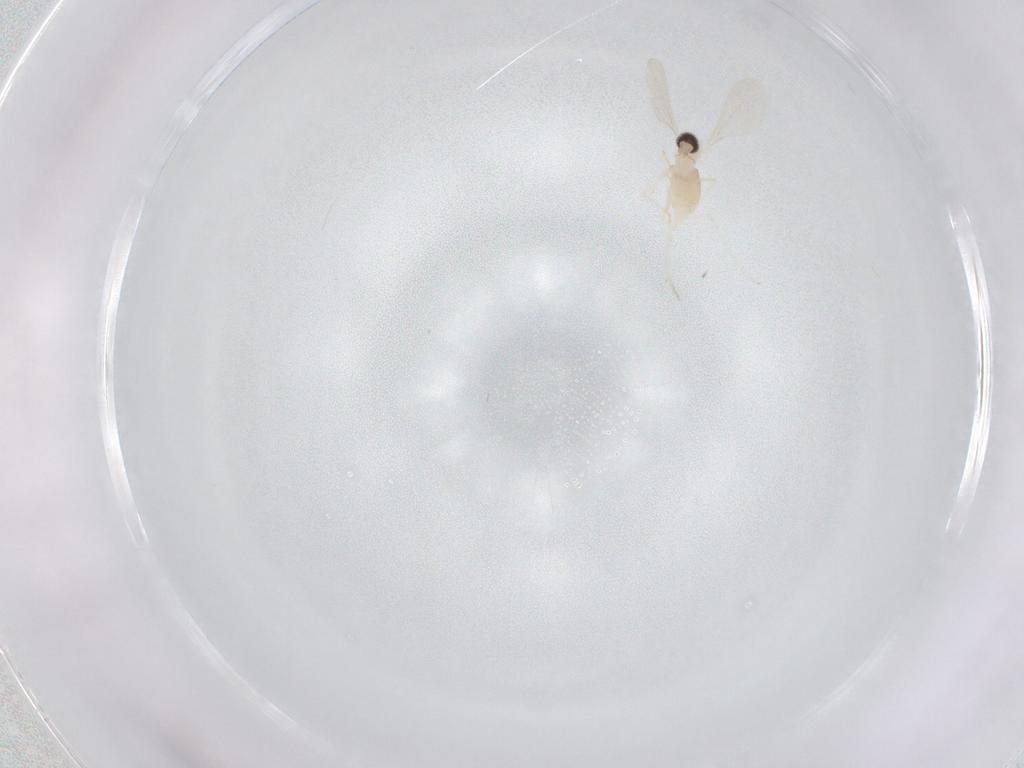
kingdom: Animalia
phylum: Arthropoda
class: Insecta
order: Diptera
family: Cecidomyiidae
